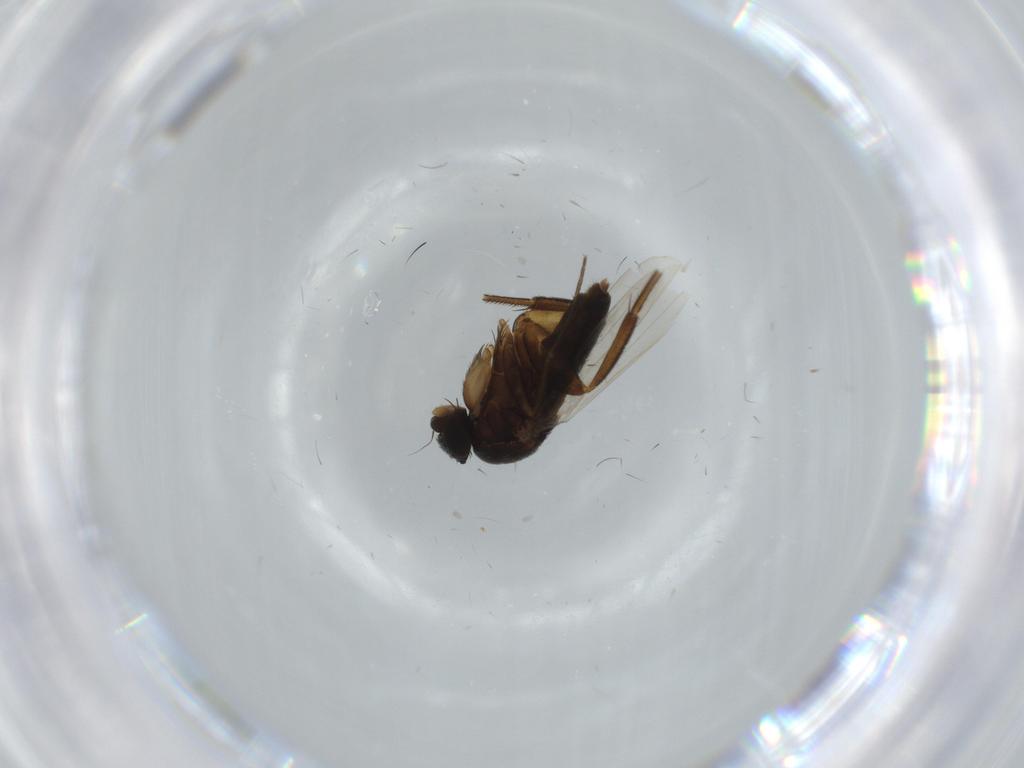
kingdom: Animalia
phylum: Arthropoda
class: Insecta
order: Diptera
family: Phoridae
